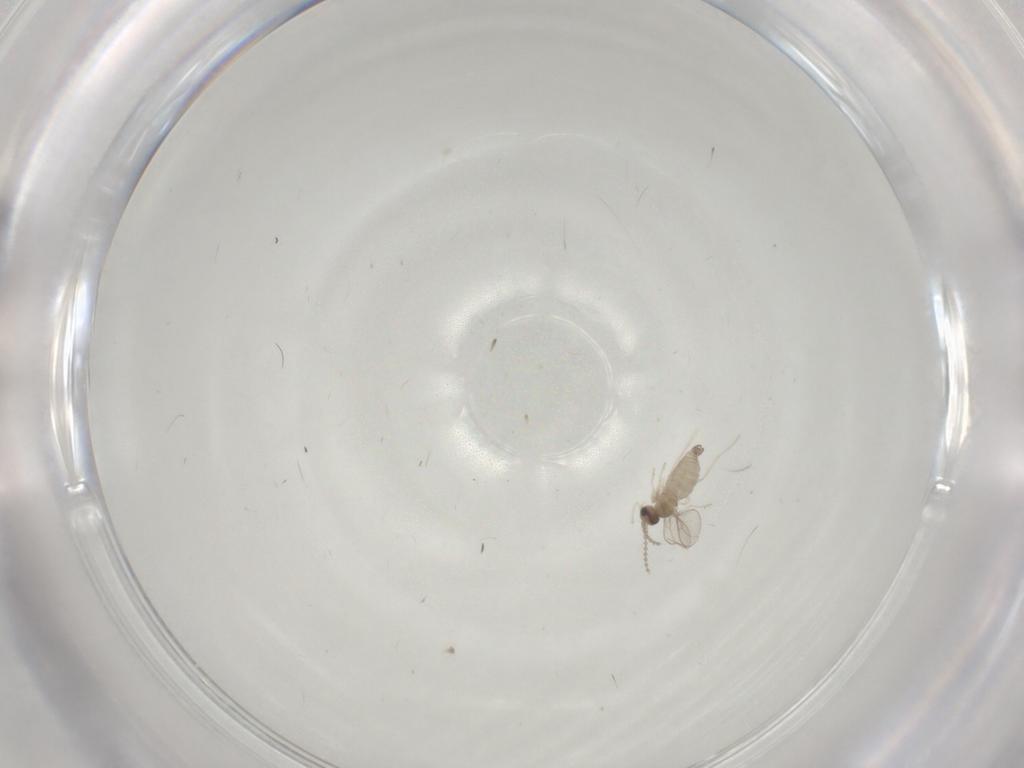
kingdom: Animalia
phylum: Arthropoda
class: Insecta
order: Diptera
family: Cecidomyiidae
